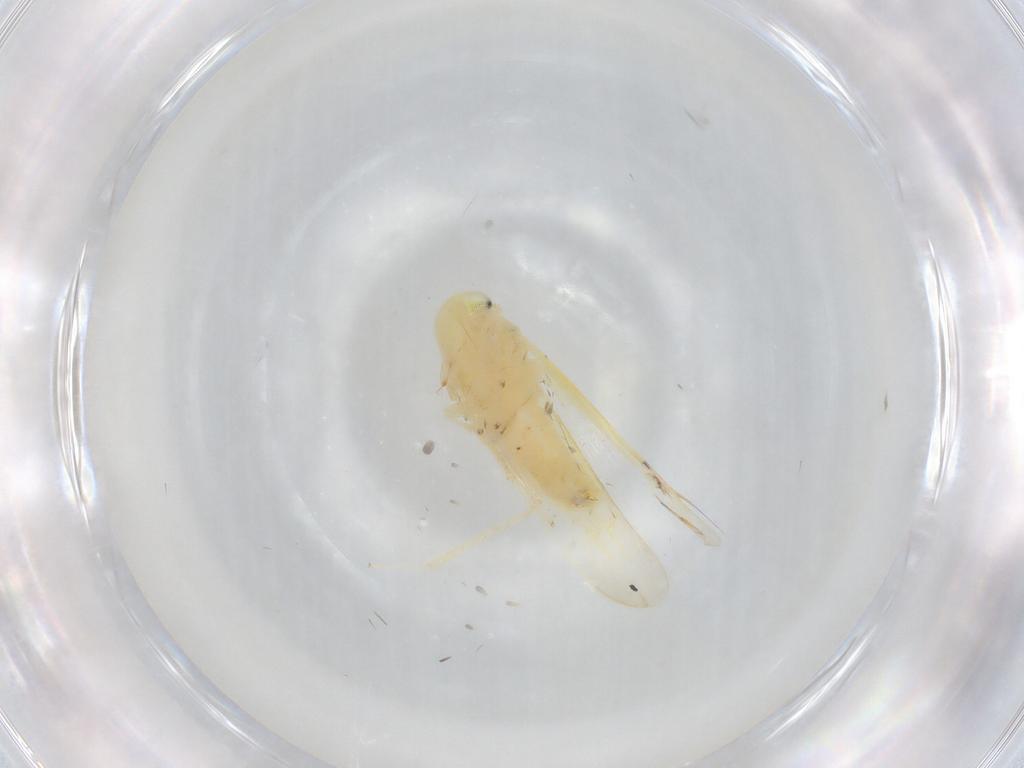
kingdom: Animalia
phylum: Arthropoda
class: Insecta
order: Hemiptera
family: Cicadellidae
